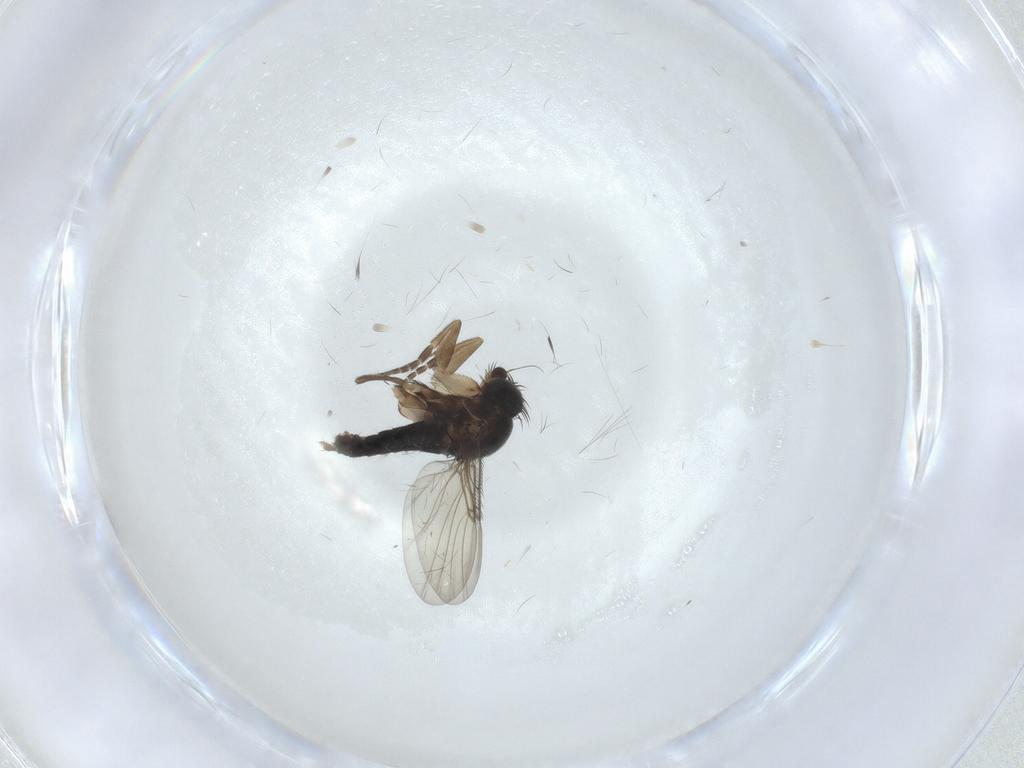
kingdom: Animalia
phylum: Arthropoda
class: Insecta
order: Diptera
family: Phoridae
